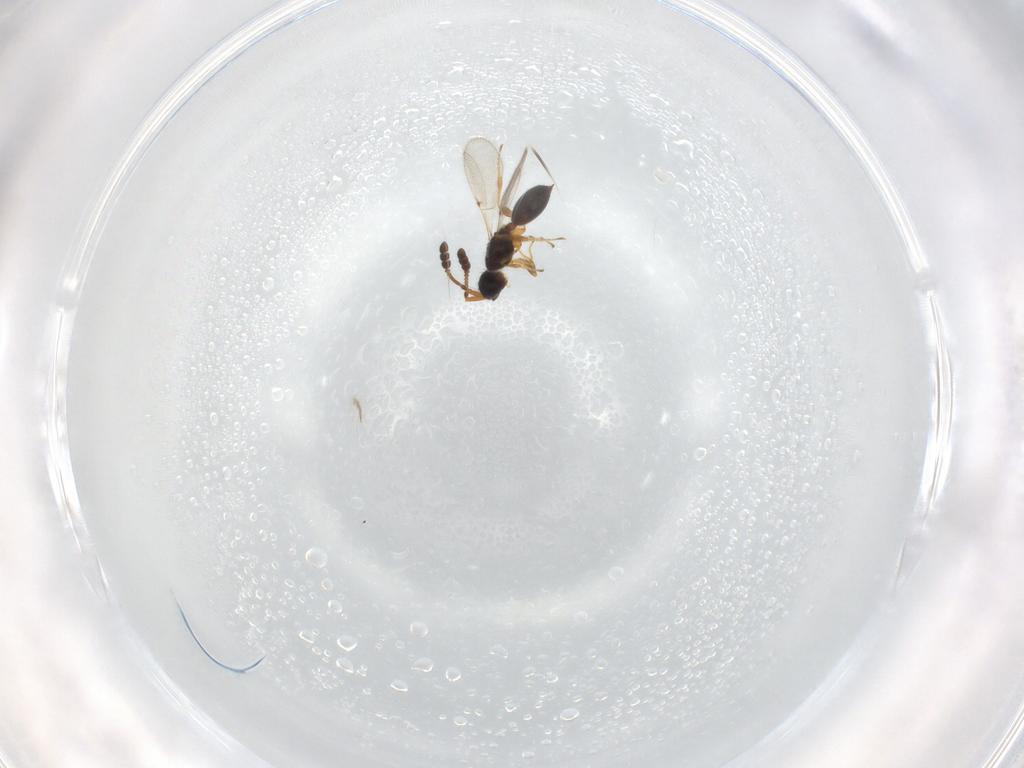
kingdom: Animalia
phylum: Arthropoda
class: Insecta
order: Hymenoptera
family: Diapriidae
